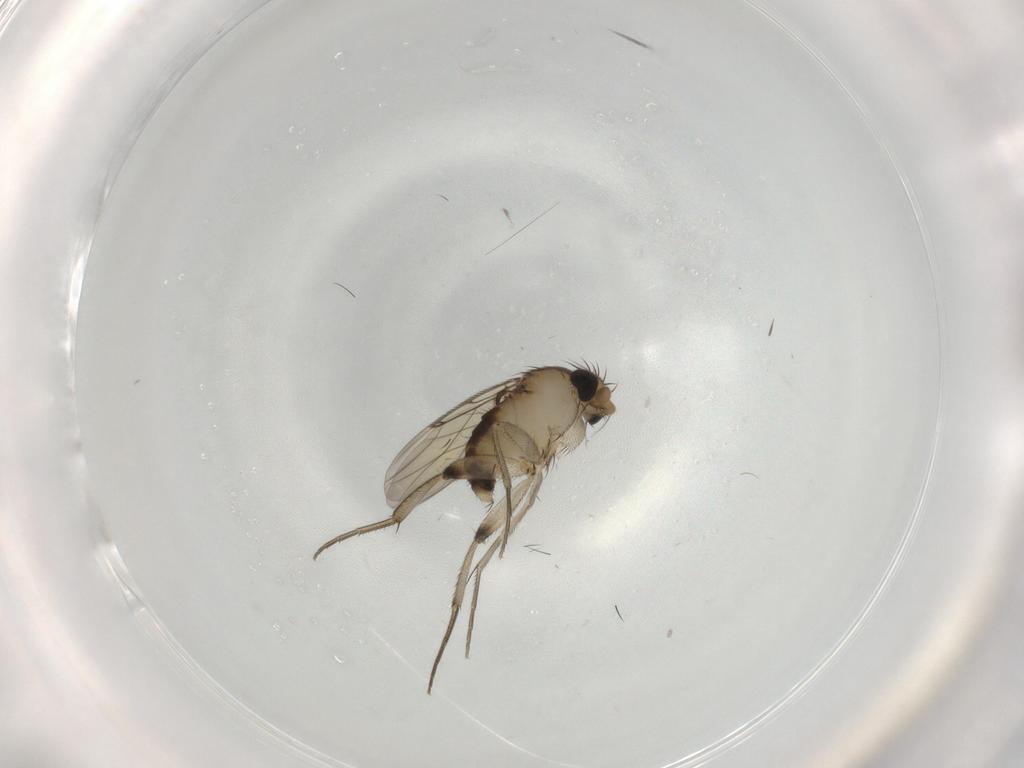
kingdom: Animalia
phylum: Arthropoda
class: Insecta
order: Diptera
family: Phoridae
